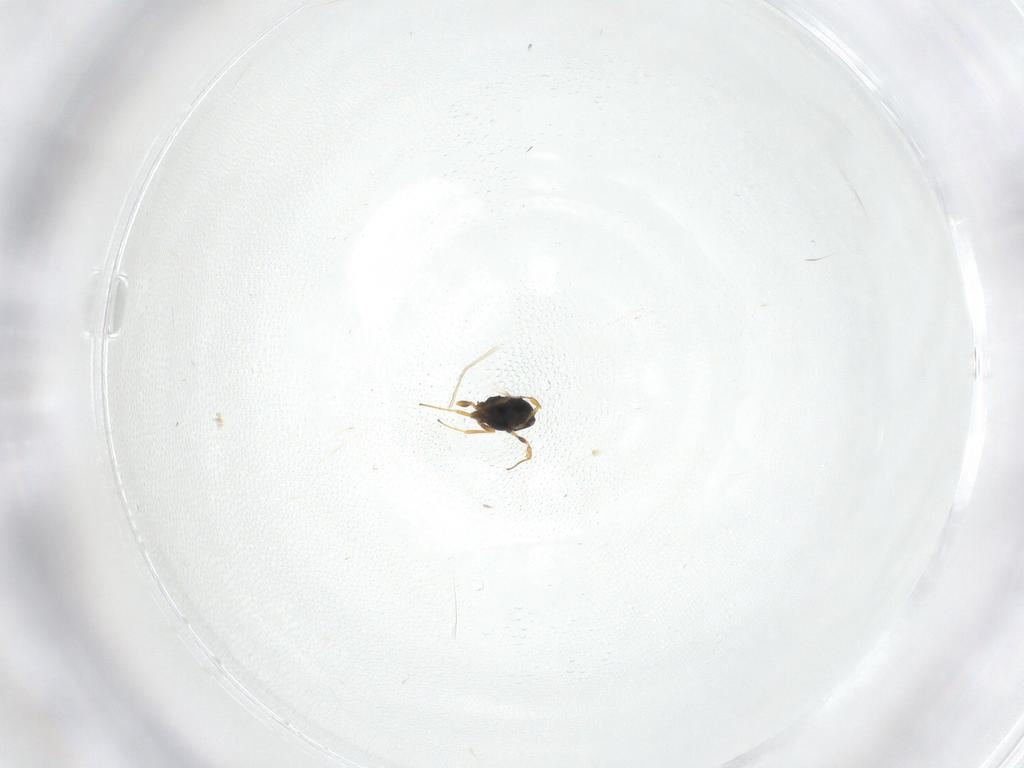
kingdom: Animalia
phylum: Arthropoda
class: Insecta
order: Hymenoptera
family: Scelionidae
